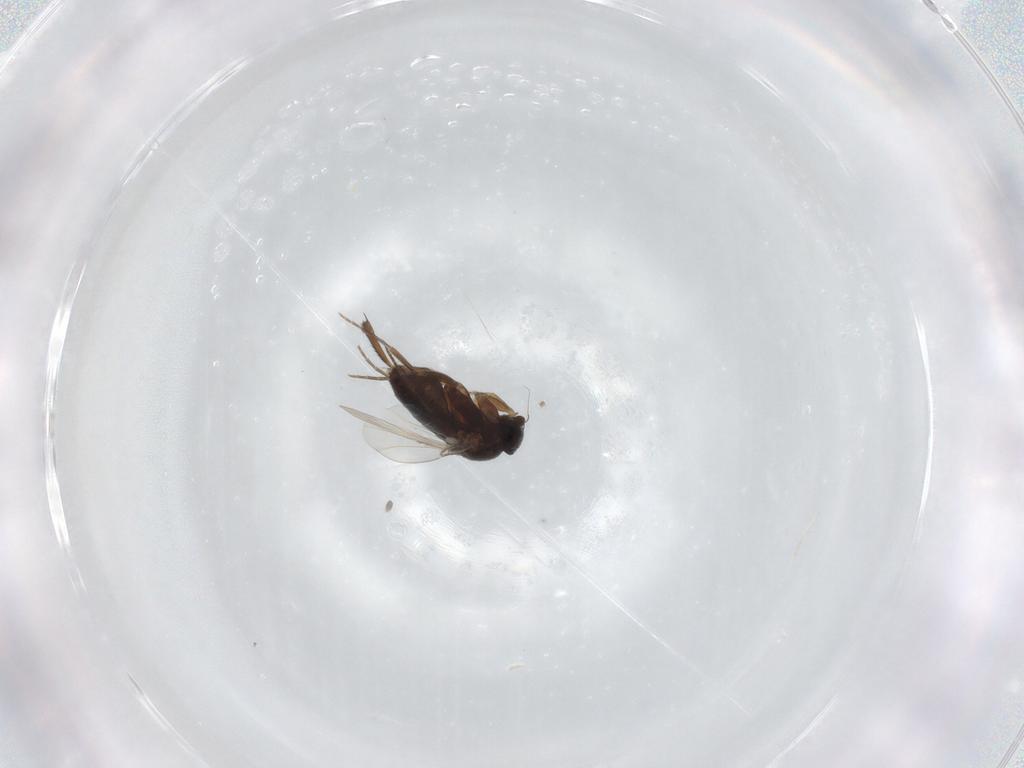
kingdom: Animalia
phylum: Arthropoda
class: Insecta
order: Diptera
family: Phoridae
